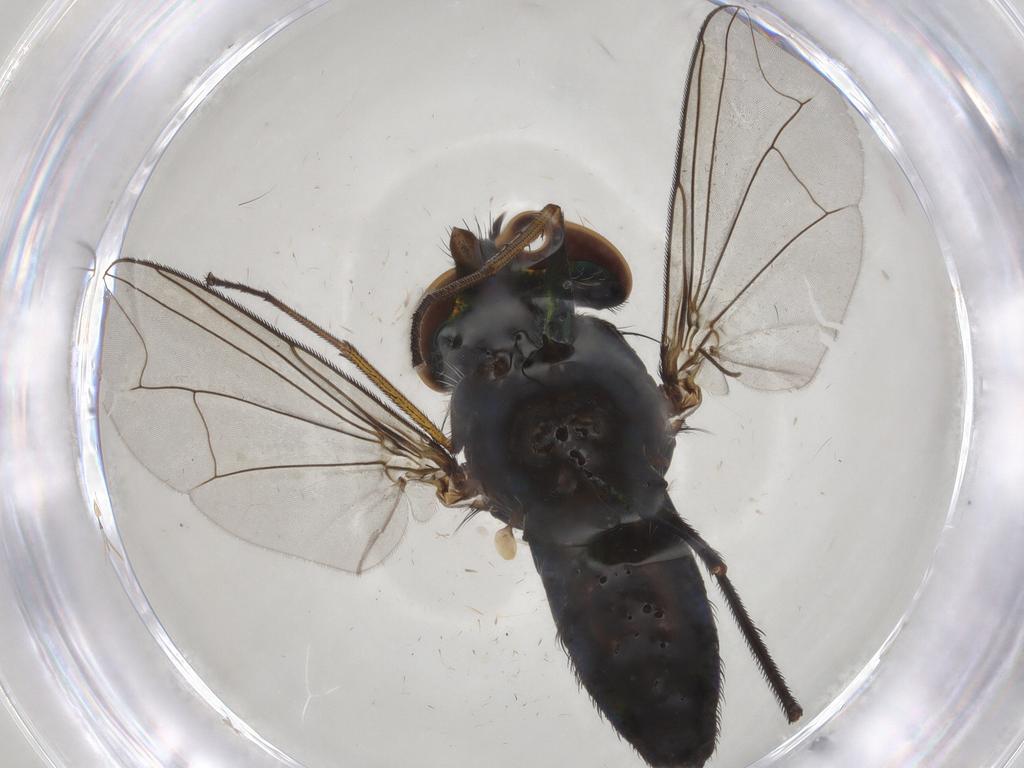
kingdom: Animalia
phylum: Arthropoda
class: Insecta
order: Diptera
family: Dolichopodidae
